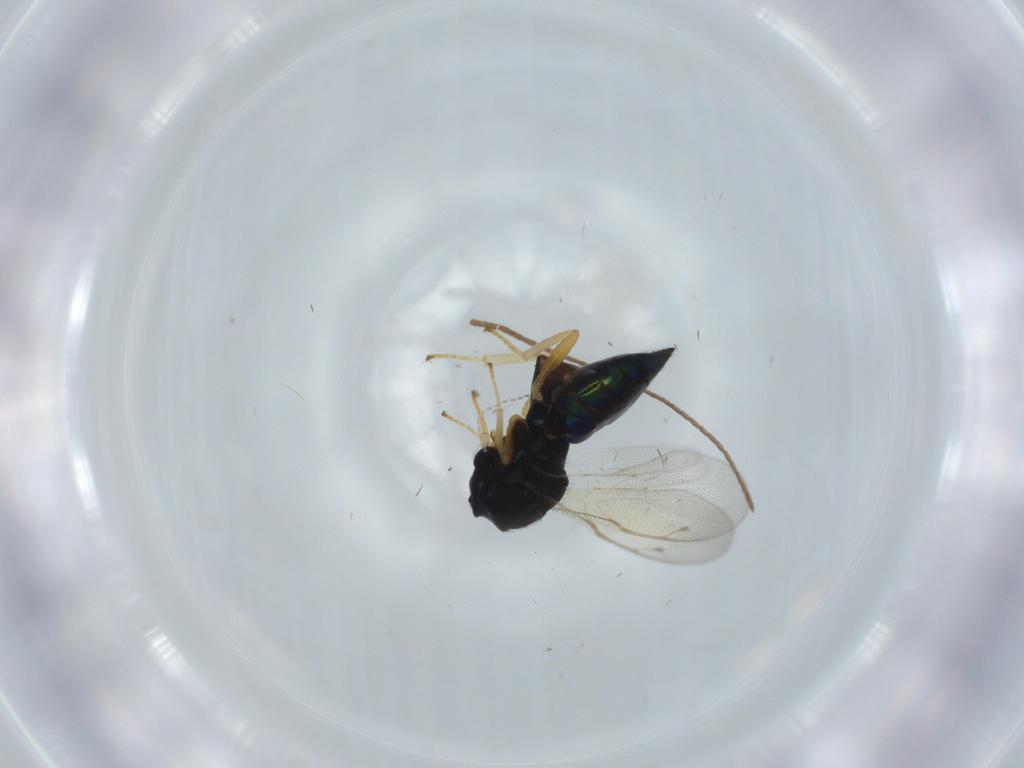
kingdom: Animalia
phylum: Arthropoda
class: Insecta
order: Hymenoptera
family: Pteromalidae
